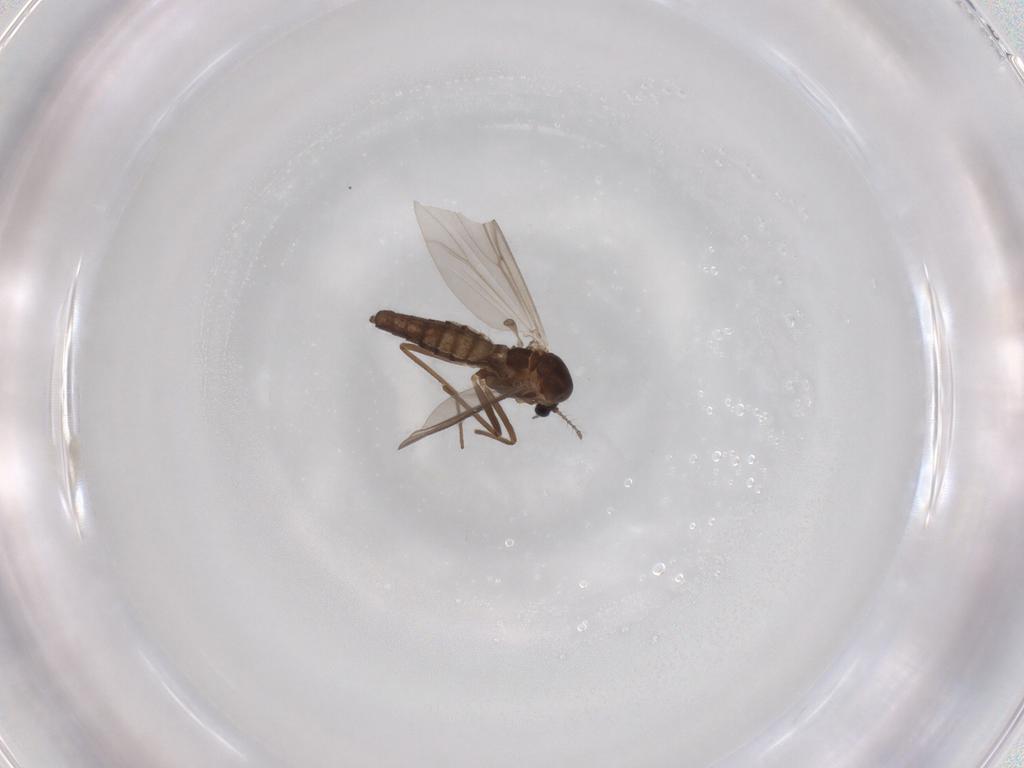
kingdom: Animalia
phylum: Arthropoda
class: Insecta
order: Diptera
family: Chironomidae
